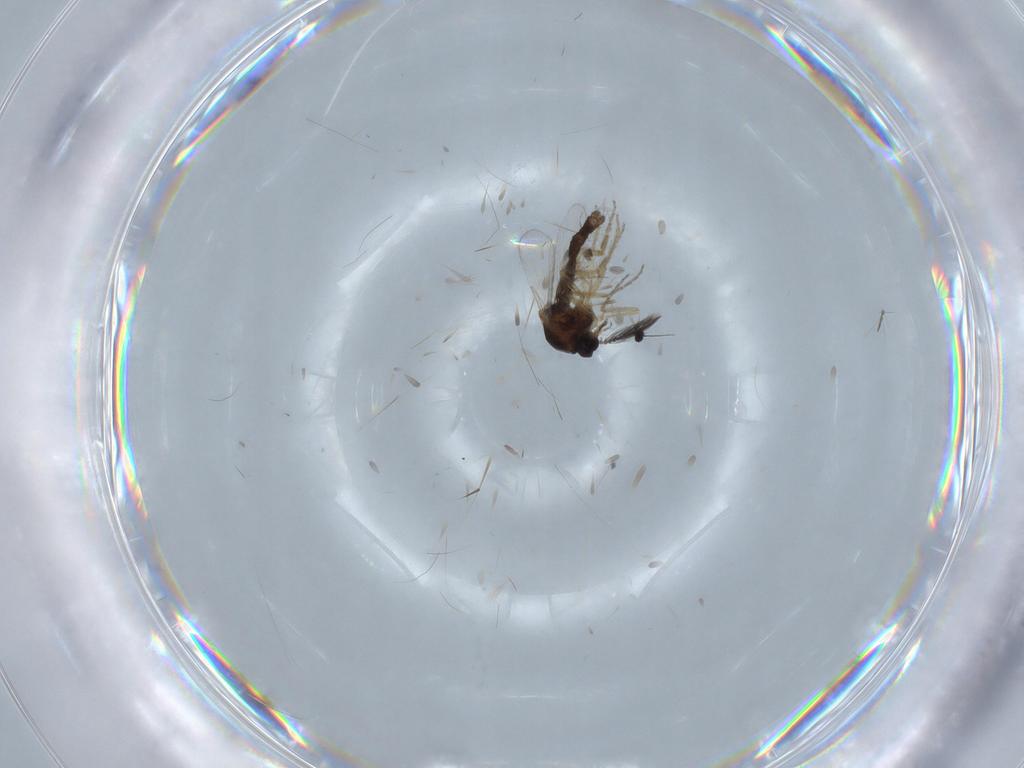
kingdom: Animalia
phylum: Arthropoda
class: Insecta
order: Diptera
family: Ceratopogonidae
